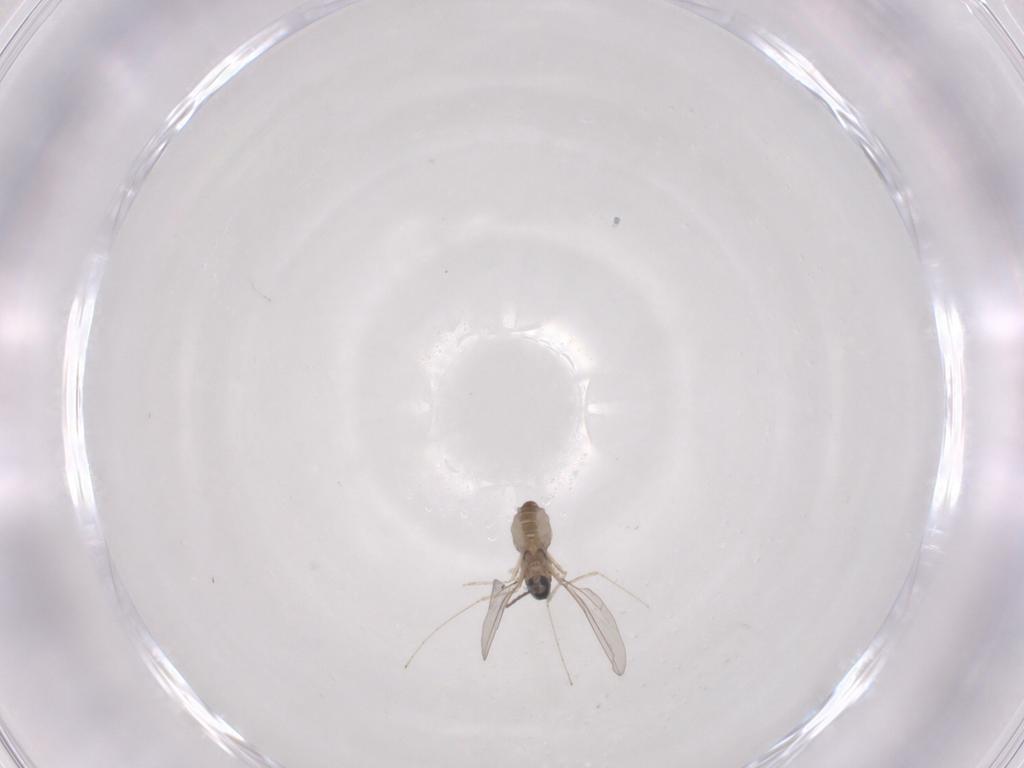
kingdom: Animalia
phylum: Arthropoda
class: Insecta
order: Diptera
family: Cecidomyiidae
